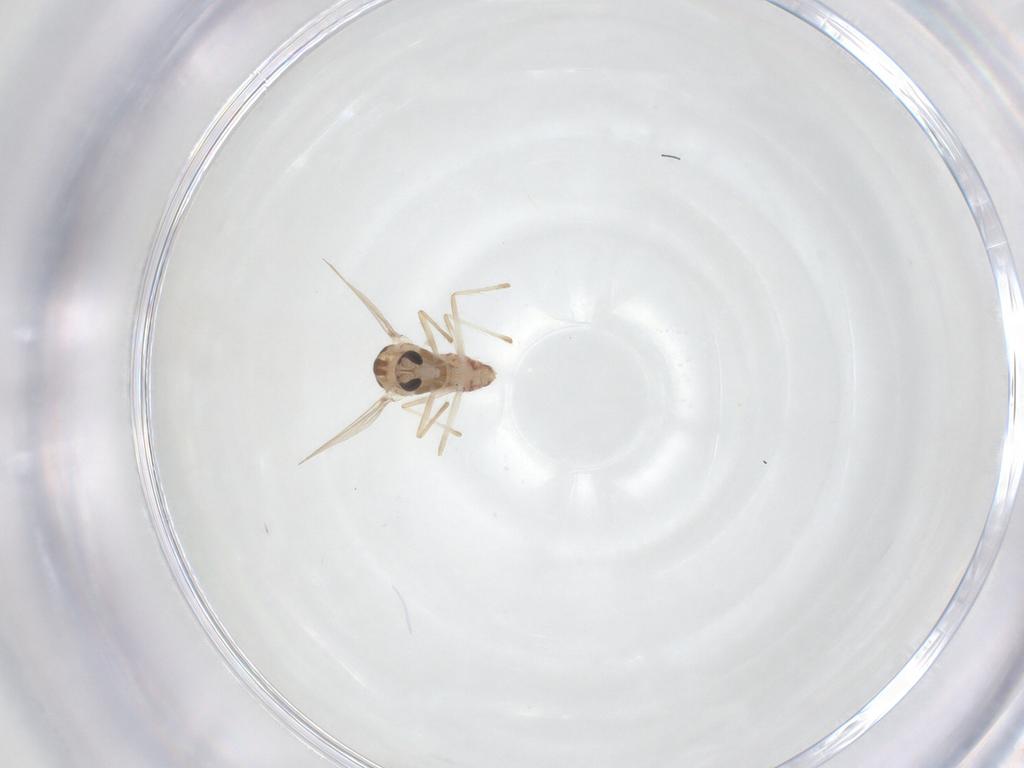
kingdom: Animalia
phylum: Arthropoda
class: Insecta
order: Diptera
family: Chironomidae
